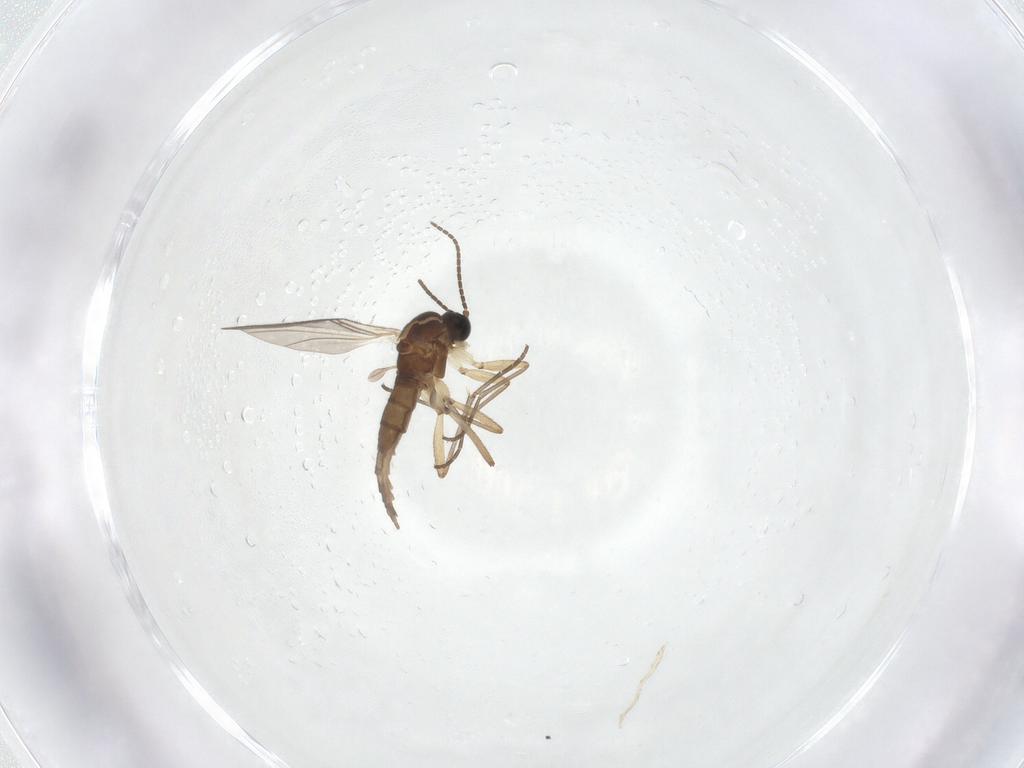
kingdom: Animalia
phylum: Arthropoda
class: Insecta
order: Diptera
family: Sciaridae
